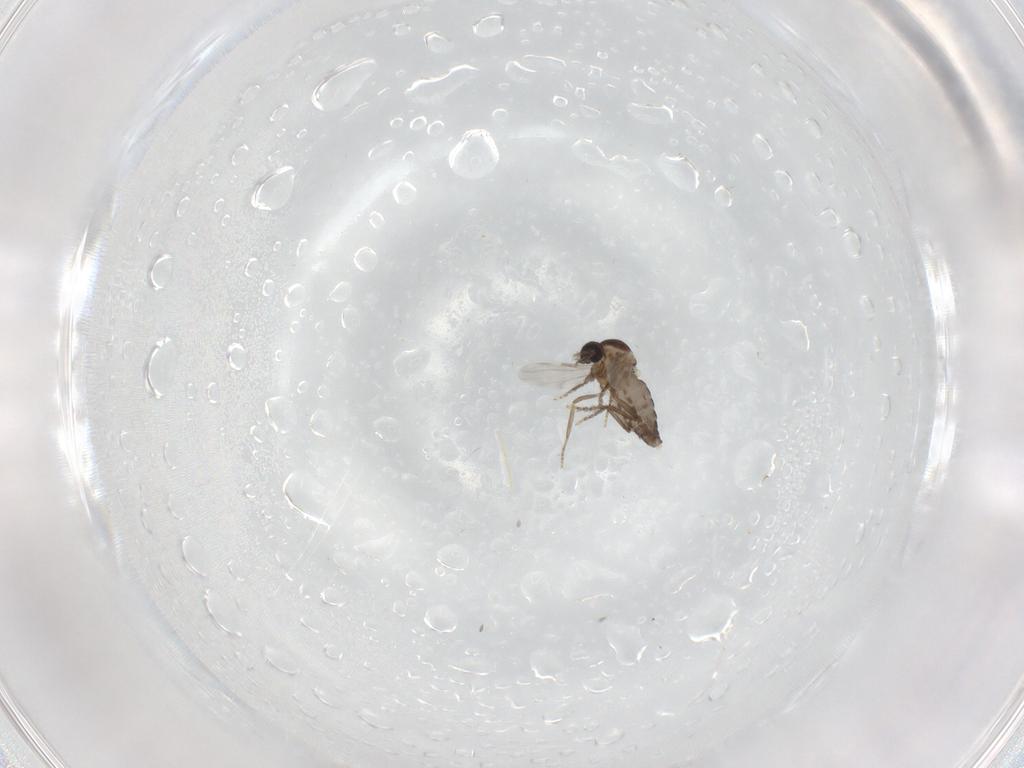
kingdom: Animalia
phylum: Arthropoda
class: Insecta
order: Diptera
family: Ceratopogonidae
